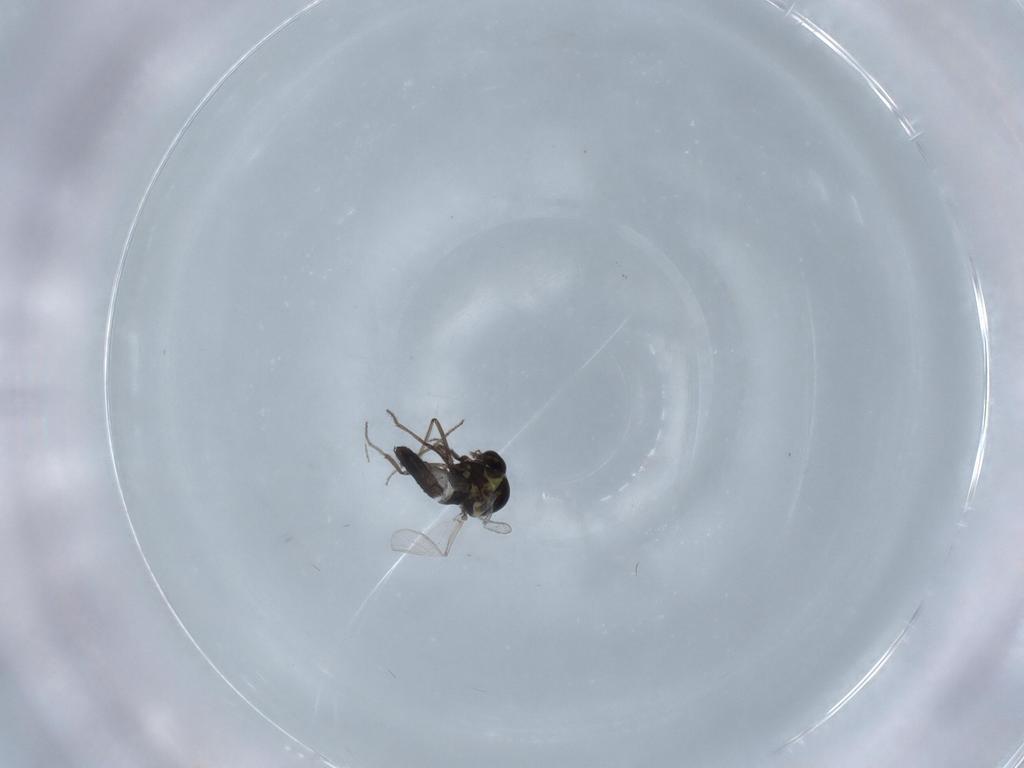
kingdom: Animalia
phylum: Arthropoda
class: Insecta
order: Diptera
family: Ceratopogonidae
